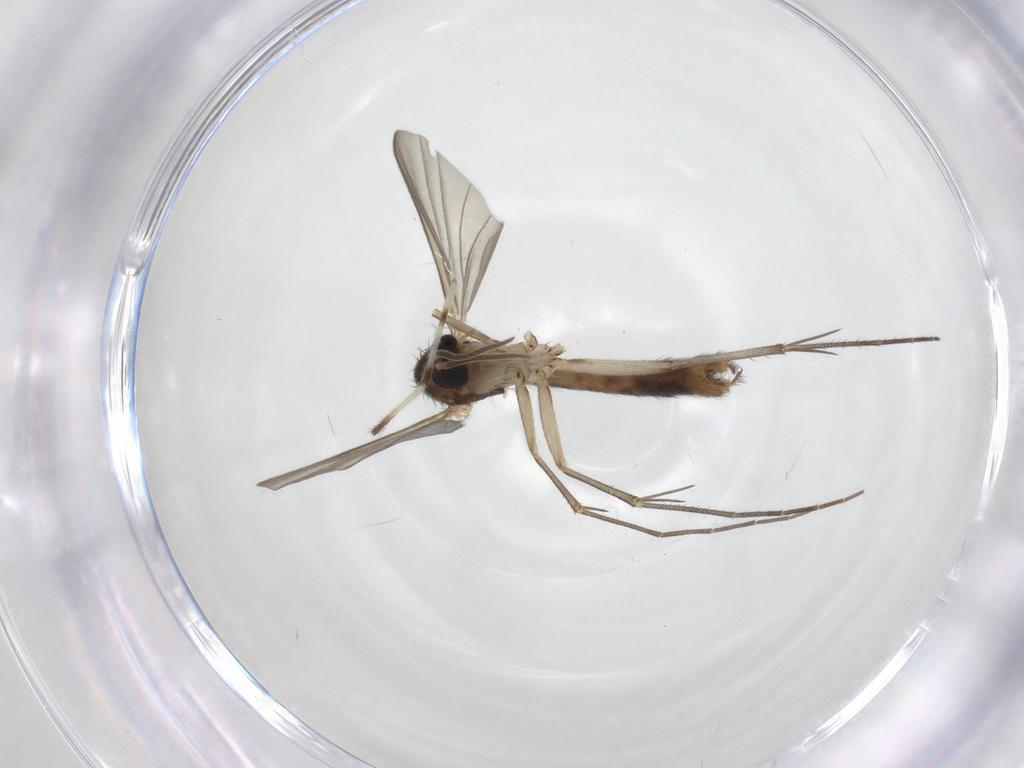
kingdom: Animalia
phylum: Arthropoda
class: Insecta
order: Diptera
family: Mycetophilidae
